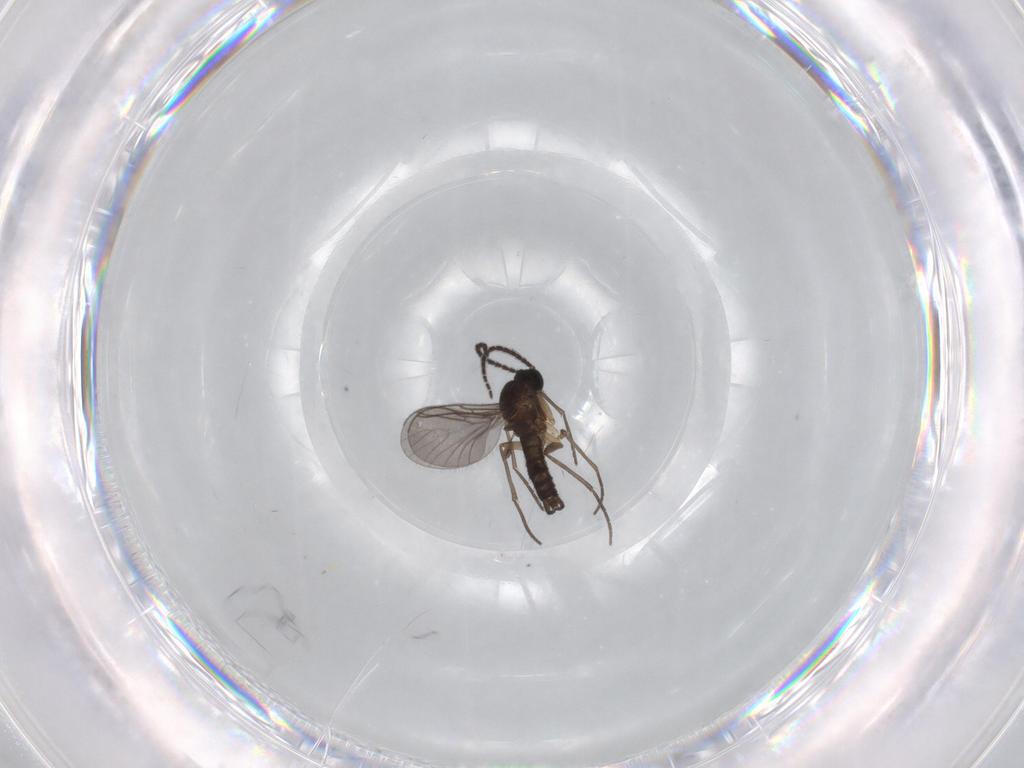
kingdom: Animalia
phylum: Arthropoda
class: Insecta
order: Diptera
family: Sciaridae
